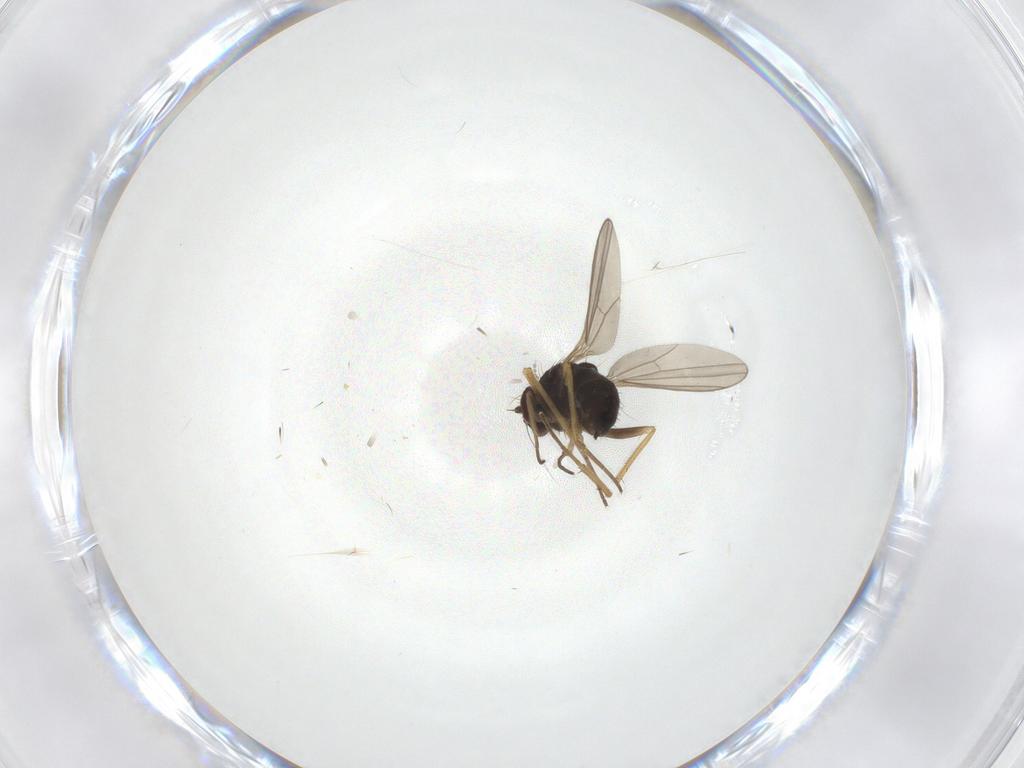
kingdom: Animalia
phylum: Arthropoda
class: Insecta
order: Diptera
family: Dolichopodidae
